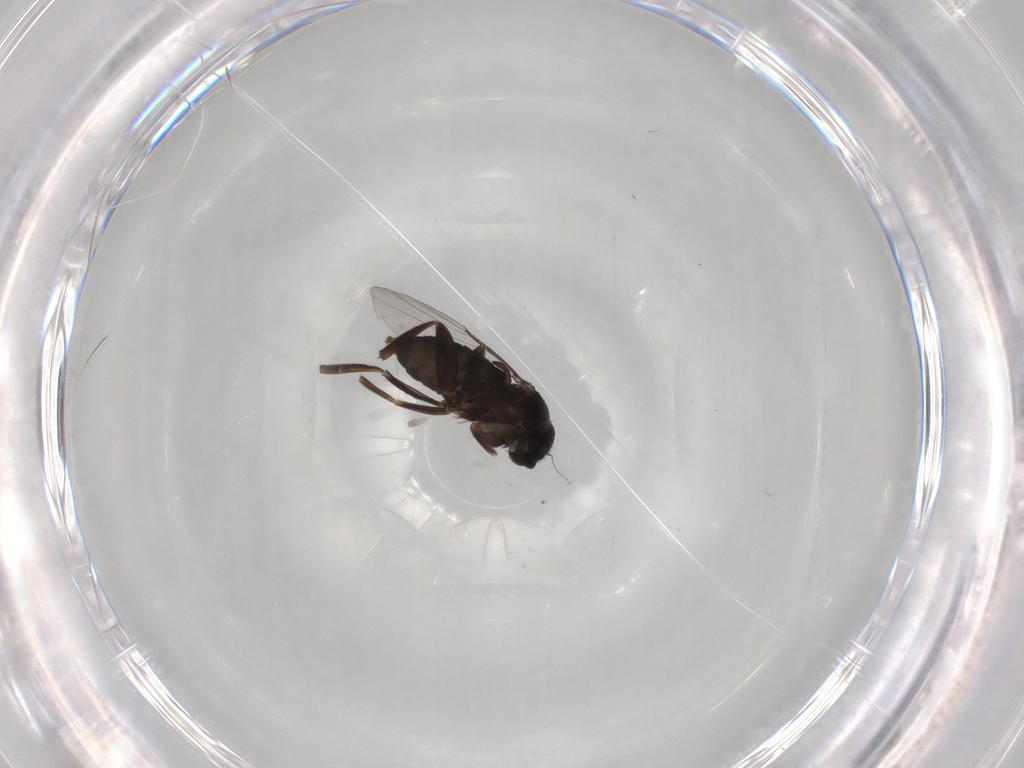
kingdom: Animalia
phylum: Arthropoda
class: Insecta
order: Diptera
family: Phoridae
